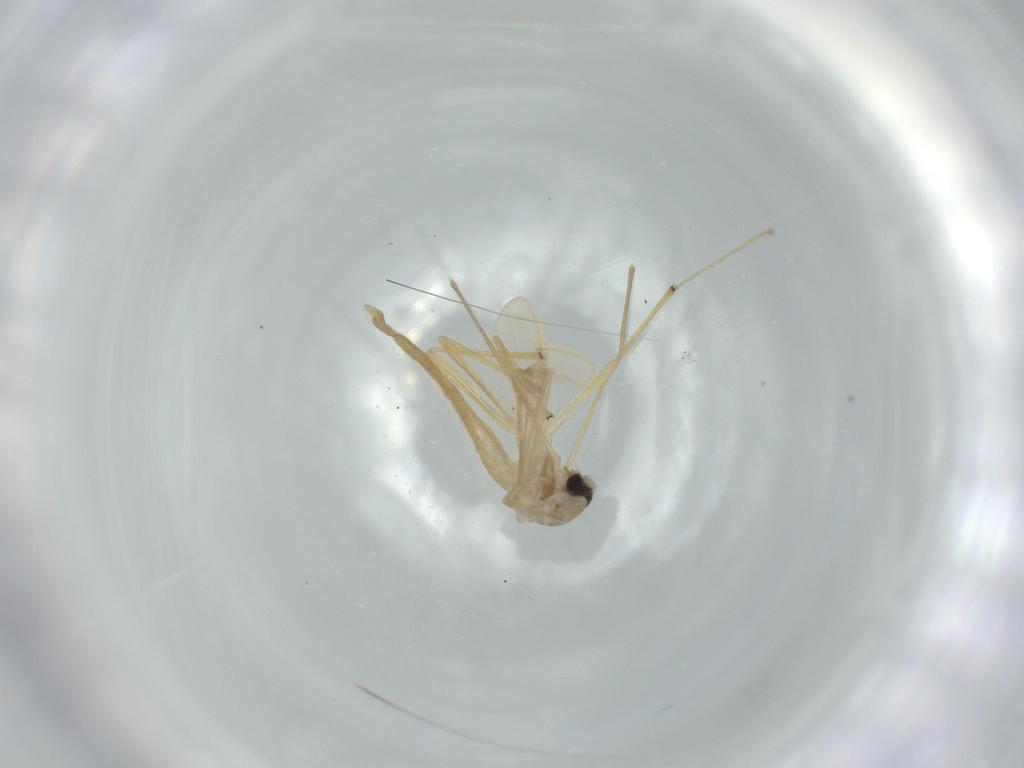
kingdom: Animalia
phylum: Arthropoda
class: Insecta
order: Diptera
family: Chironomidae
